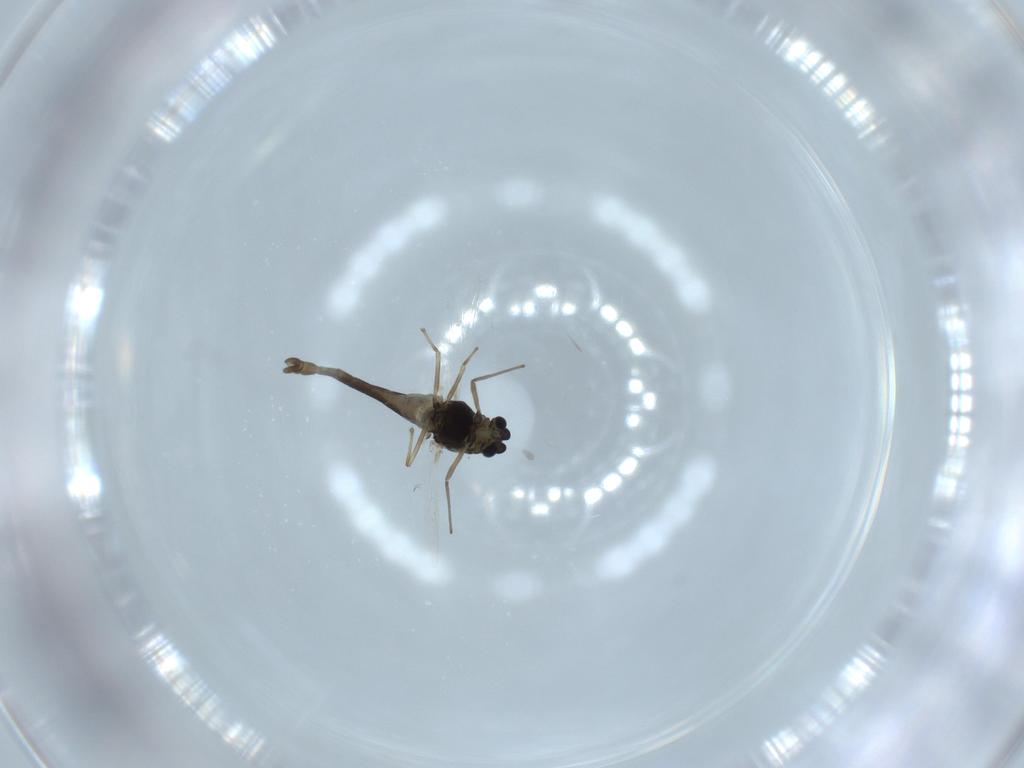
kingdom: Animalia
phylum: Arthropoda
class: Insecta
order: Diptera
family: Chironomidae
